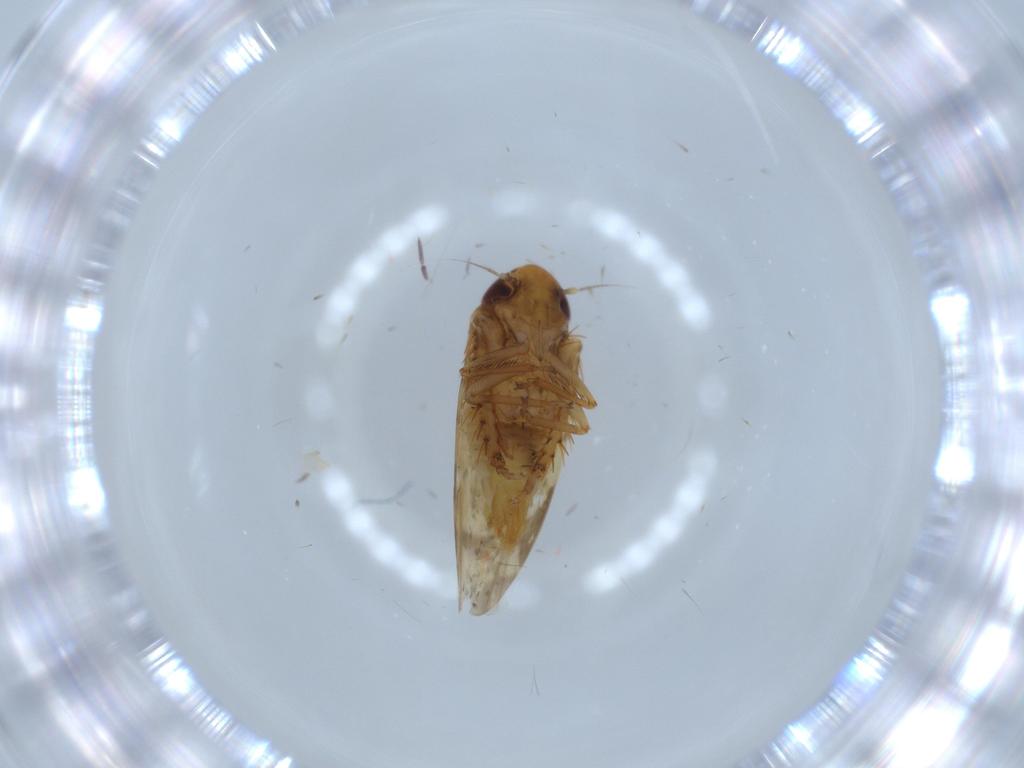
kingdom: Animalia
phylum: Arthropoda
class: Insecta
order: Hemiptera
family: Cicadellidae
